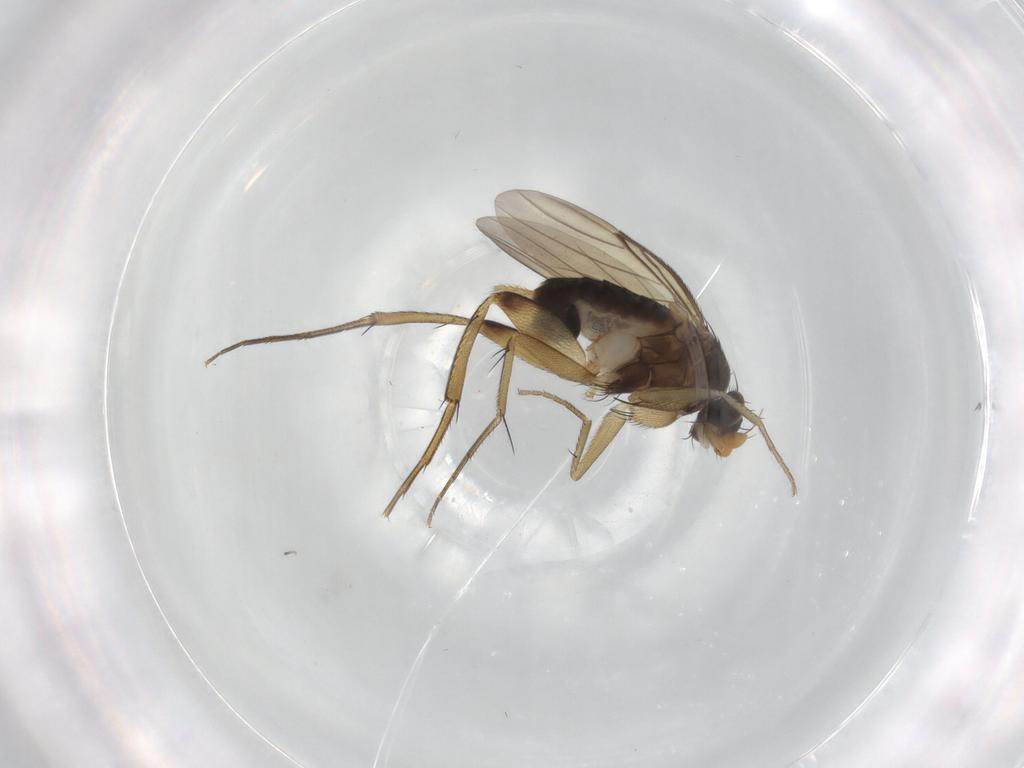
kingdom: Animalia
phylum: Arthropoda
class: Insecta
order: Diptera
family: Phoridae
